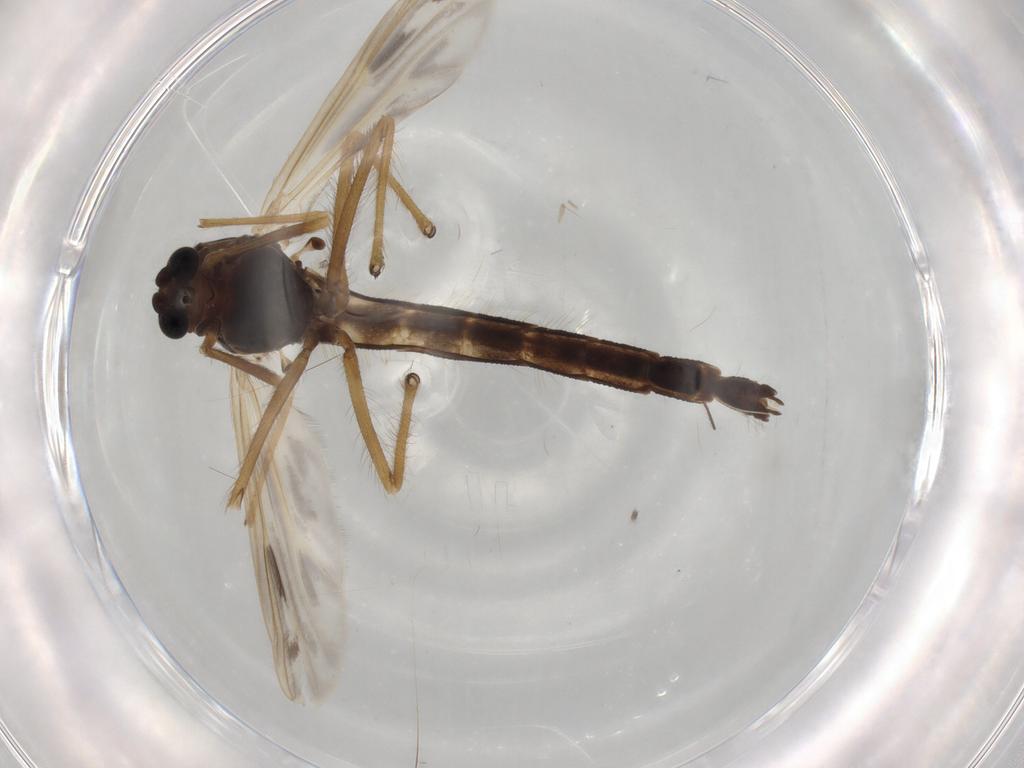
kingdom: Animalia
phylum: Arthropoda
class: Insecta
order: Diptera
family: Chironomidae
